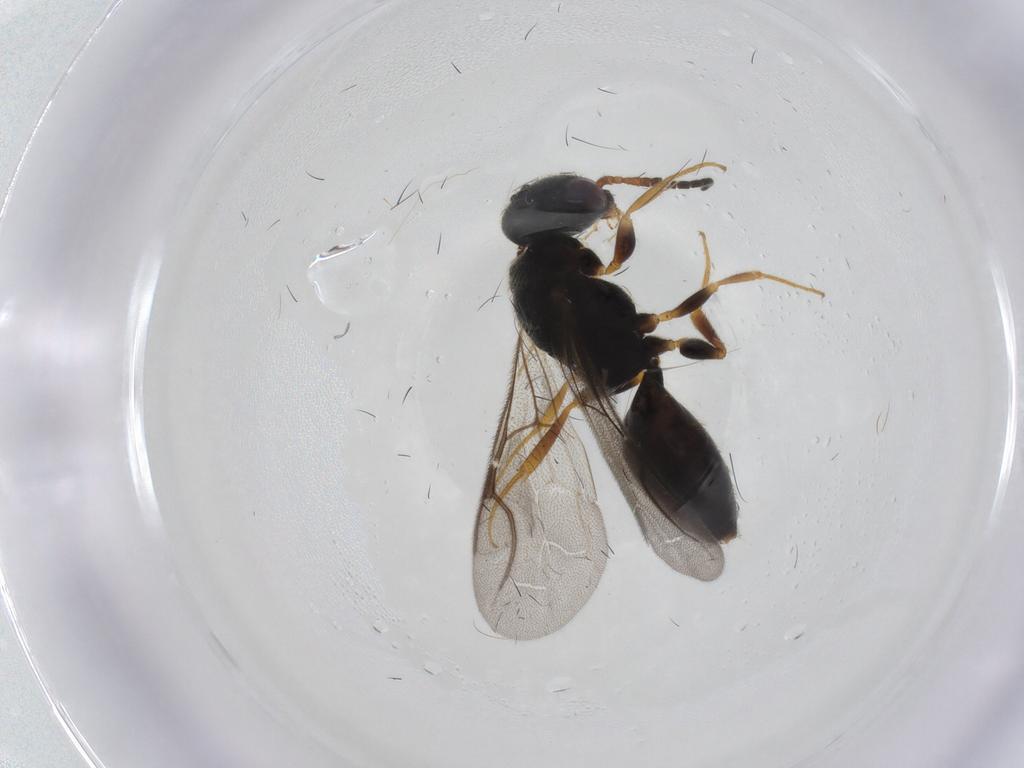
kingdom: Animalia
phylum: Arthropoda
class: Insecta
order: Hymenoptera
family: Bethylidae
